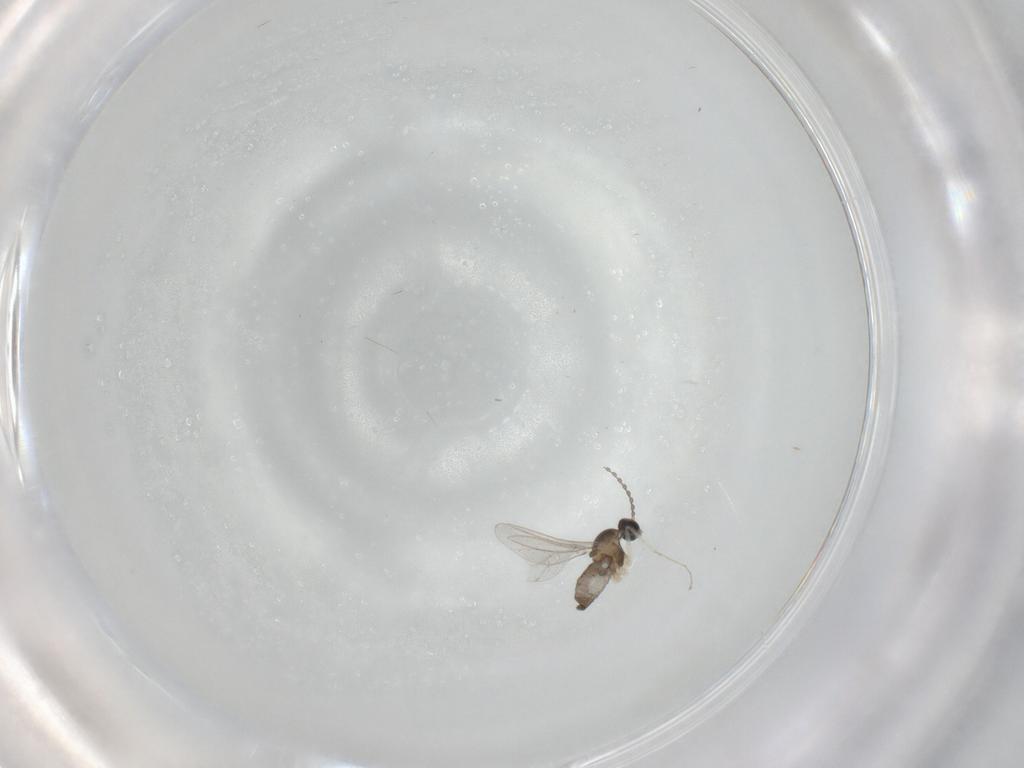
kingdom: Animalia
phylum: Arthropoda
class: Insecta
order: Diptera
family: Cecidomyiidae
